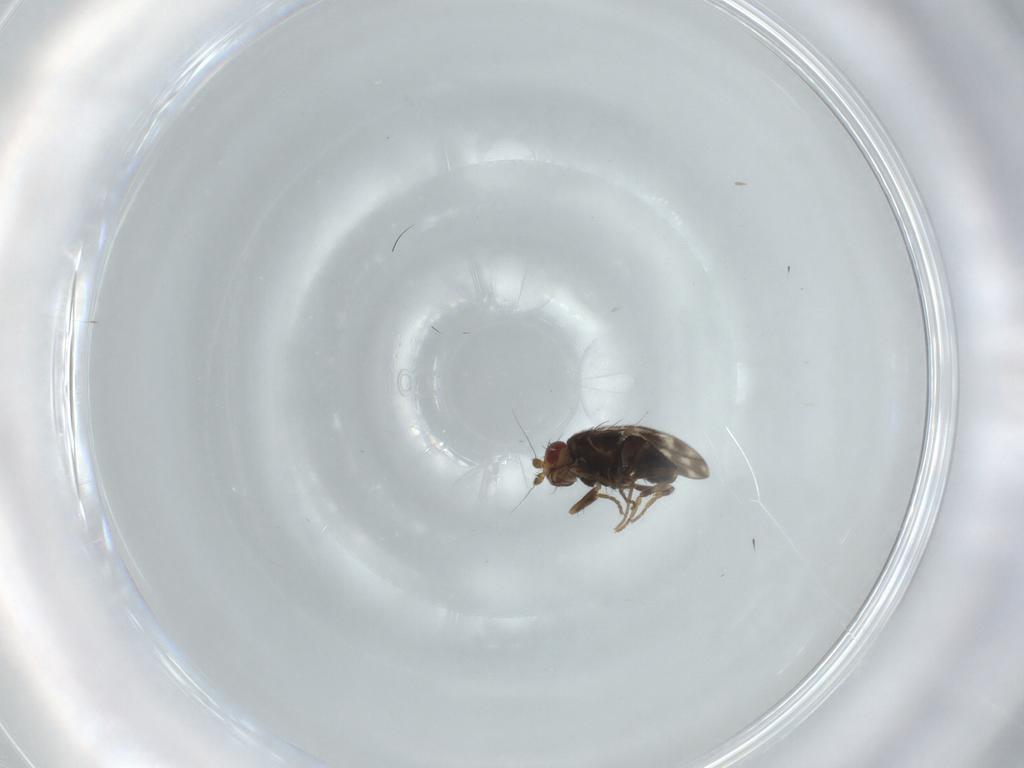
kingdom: Animalia
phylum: Arthropoda
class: Insecta
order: Diptera
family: Sphaeroceridae
